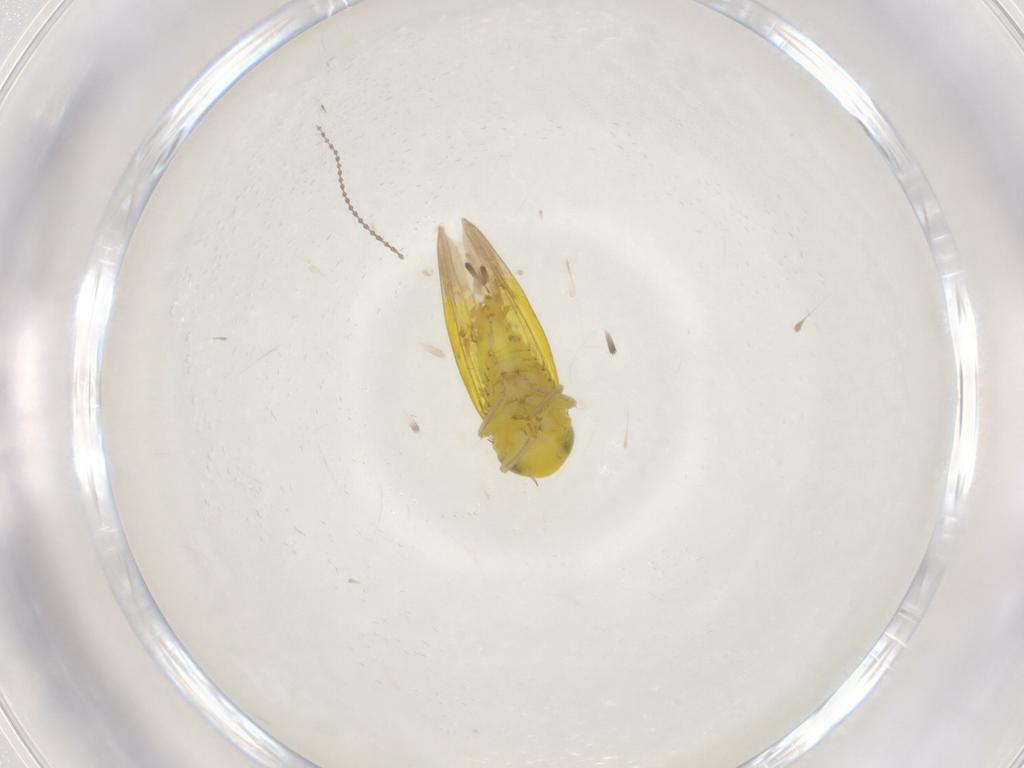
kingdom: Animalia
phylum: Arthropoda
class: Insecta
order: Hemiptera
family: Cicadellidae
